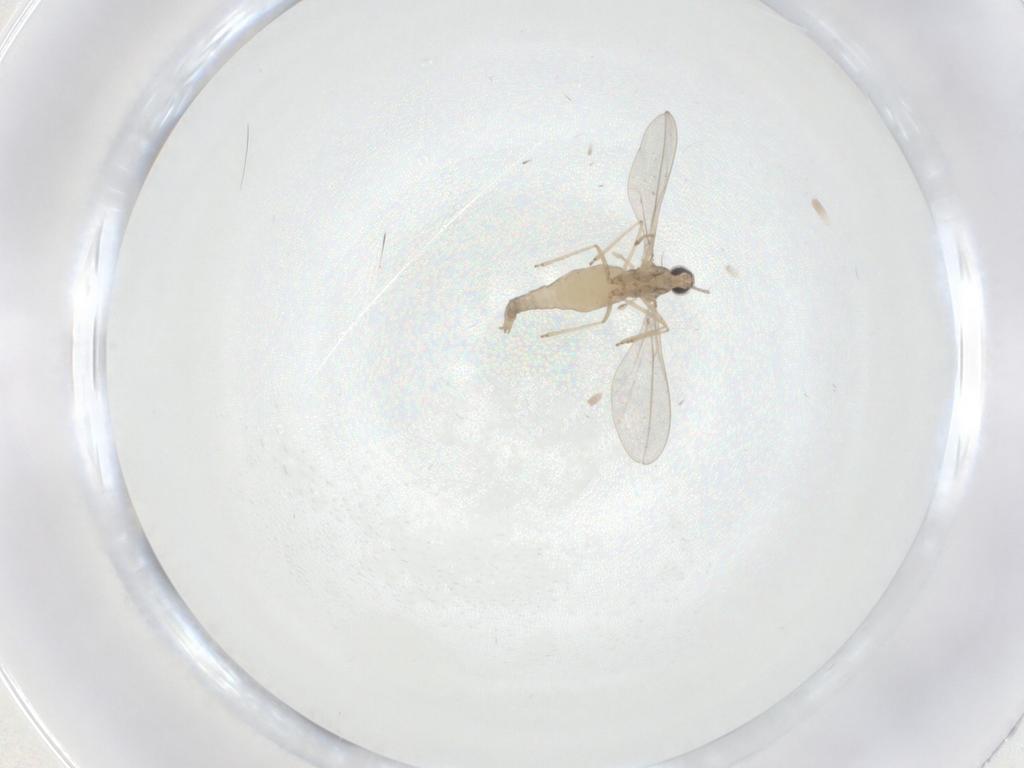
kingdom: Animalia
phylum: Arthropoda
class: Insecta
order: Diptera
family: Cecidomyiidae
